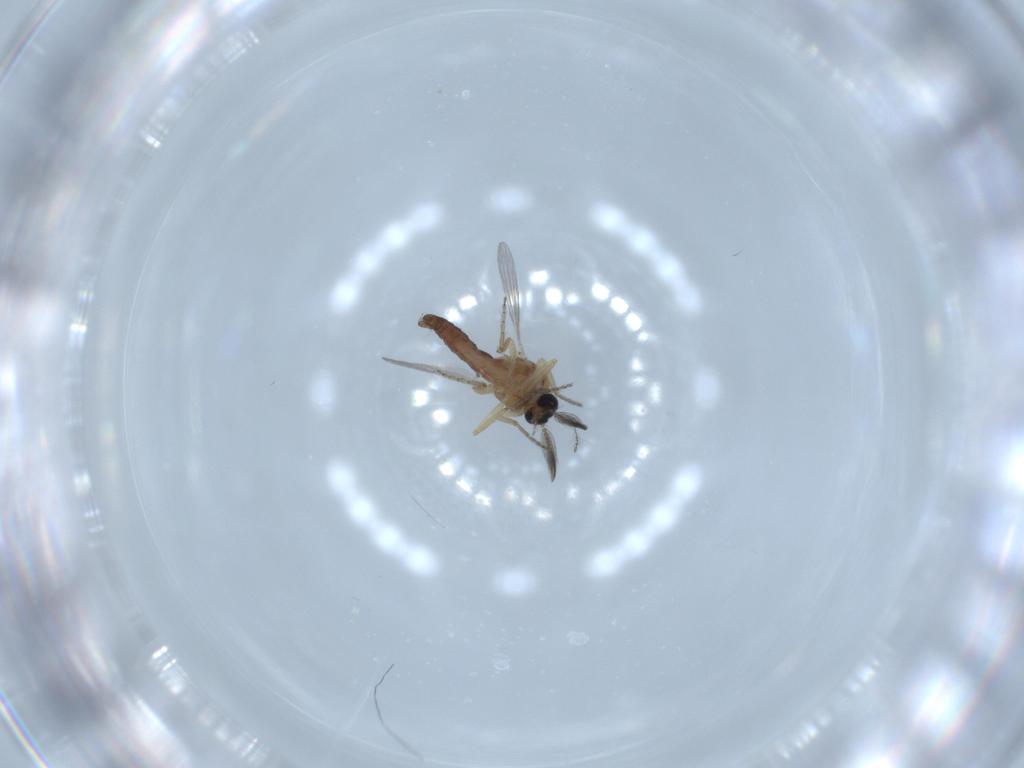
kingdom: Animalia
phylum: Arthropoda
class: Insecta
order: Diptera
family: Ceratopogonidae
